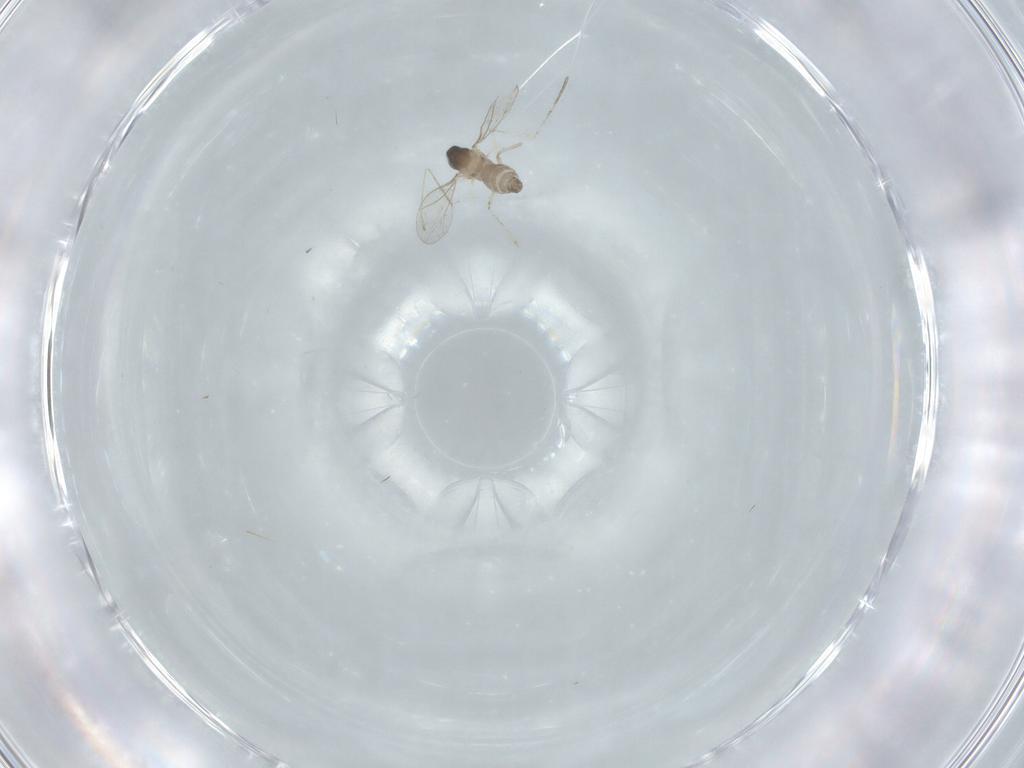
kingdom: Animalia
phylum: Arthropoda
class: Insecta
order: Diptera
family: Cecidomyiidae
